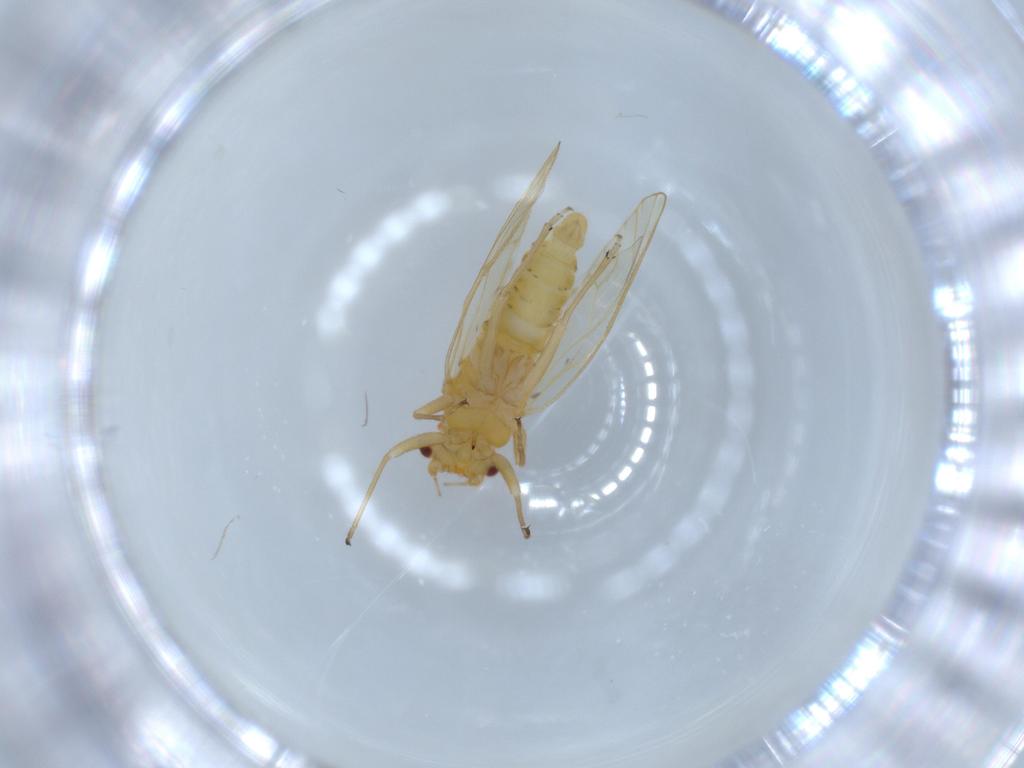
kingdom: Animalia
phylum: Arthropoda
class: Insecta
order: Hemiptera
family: Psyllidae
